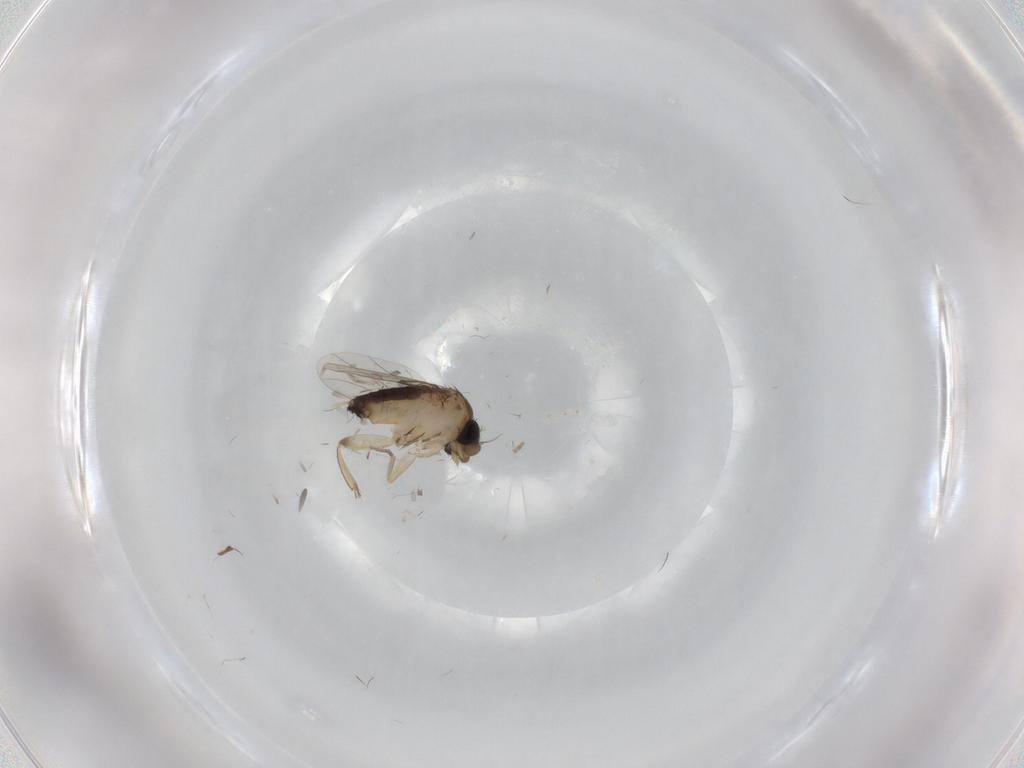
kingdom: Animalia
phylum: Arthropoda
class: Insecta
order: Diptera
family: Phoridae
